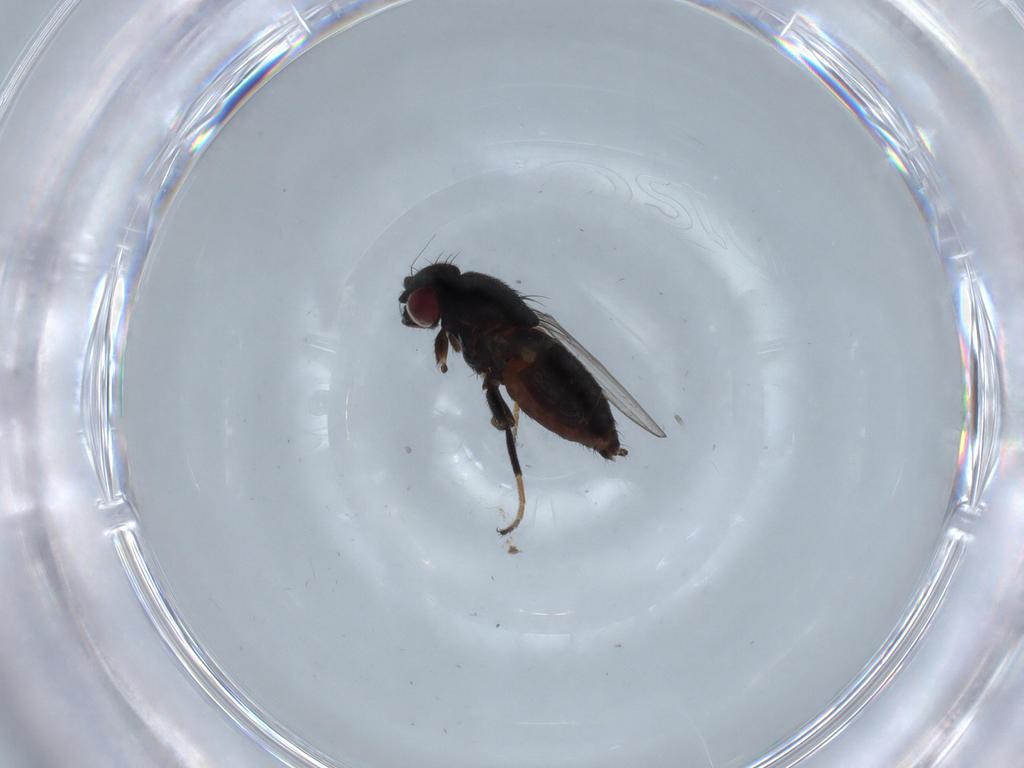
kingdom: Animalia
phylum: Arthropoda
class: Insecta
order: Diptera
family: Milichiidae
